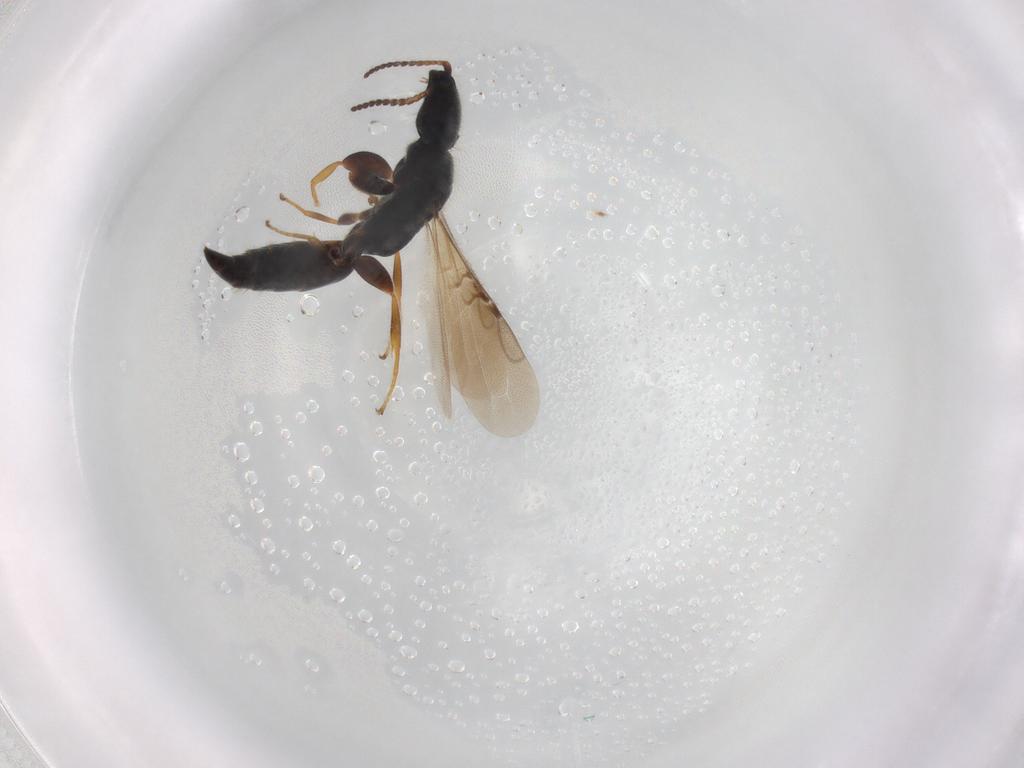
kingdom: Animalia
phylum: Arthropoda
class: Insecta
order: Hymenoptera
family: Bethylidae
